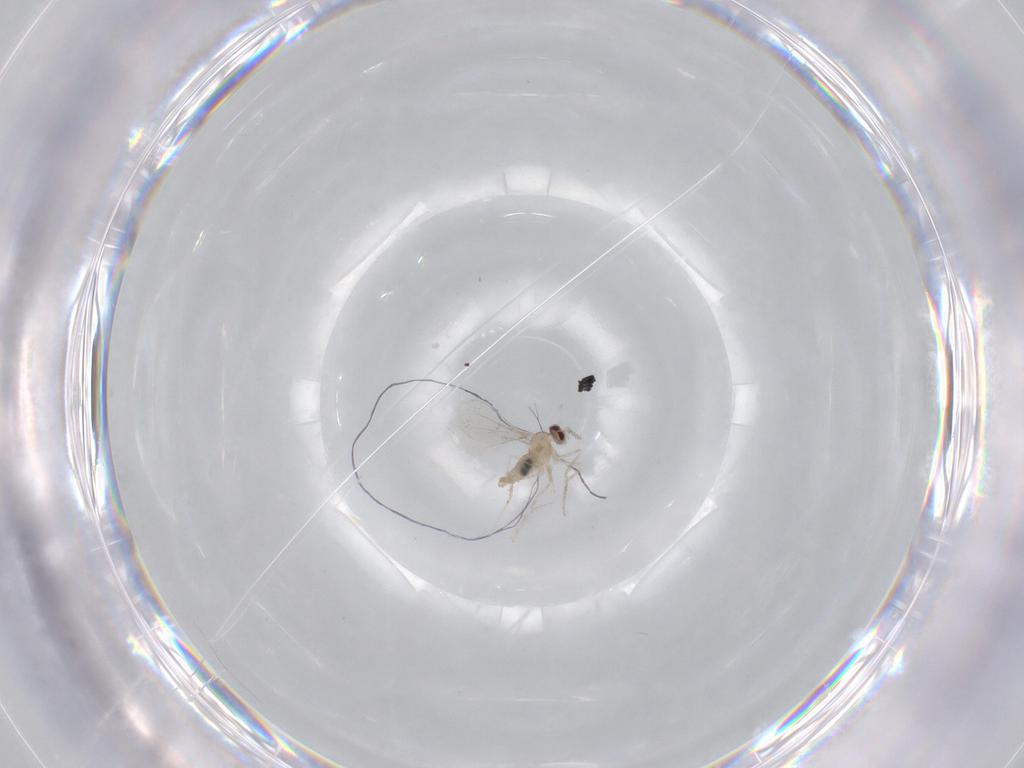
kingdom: Animalia
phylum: Arthropoda
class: Insecta
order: Diptera
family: Cecidomyiidae
